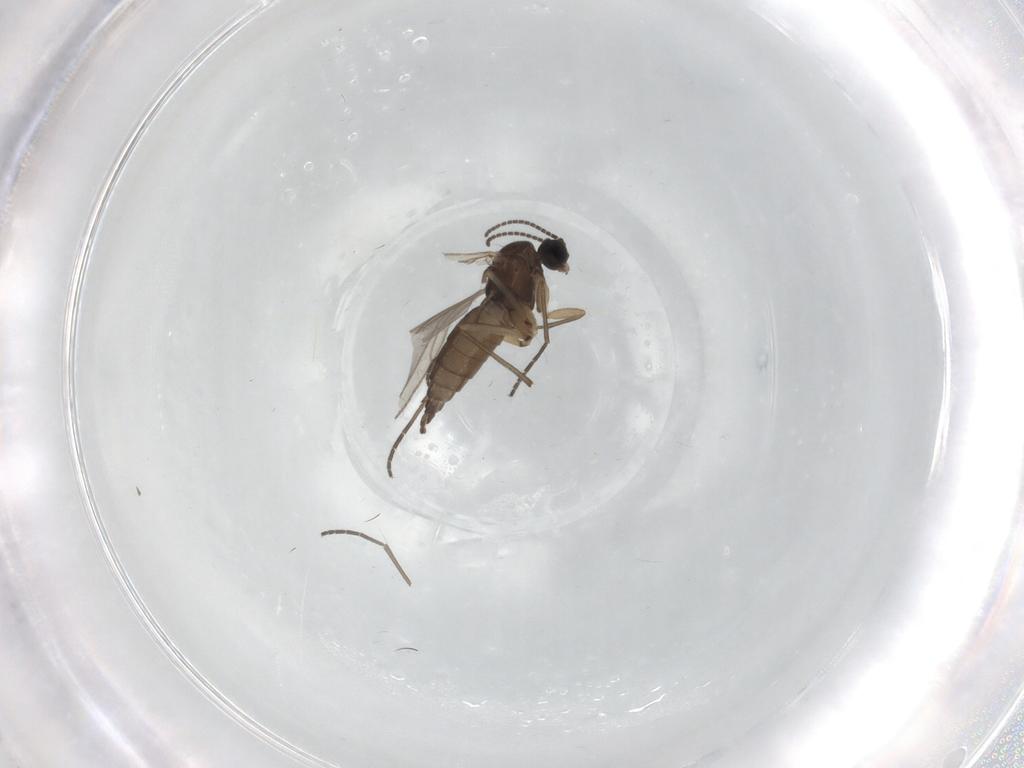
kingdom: Animalia
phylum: Arthropoda
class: Insecta
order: Diptera
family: Sciaridae
